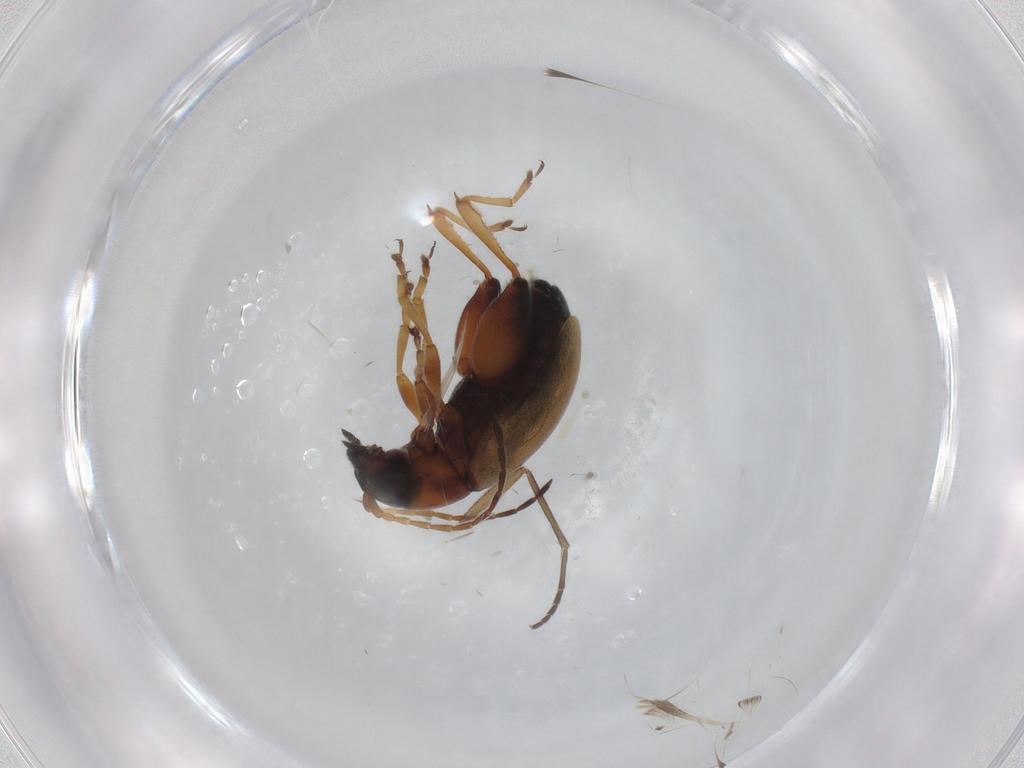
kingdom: Animalia
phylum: Arthropoda
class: Insecta
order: Coleoptera
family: Chrysomelidae
